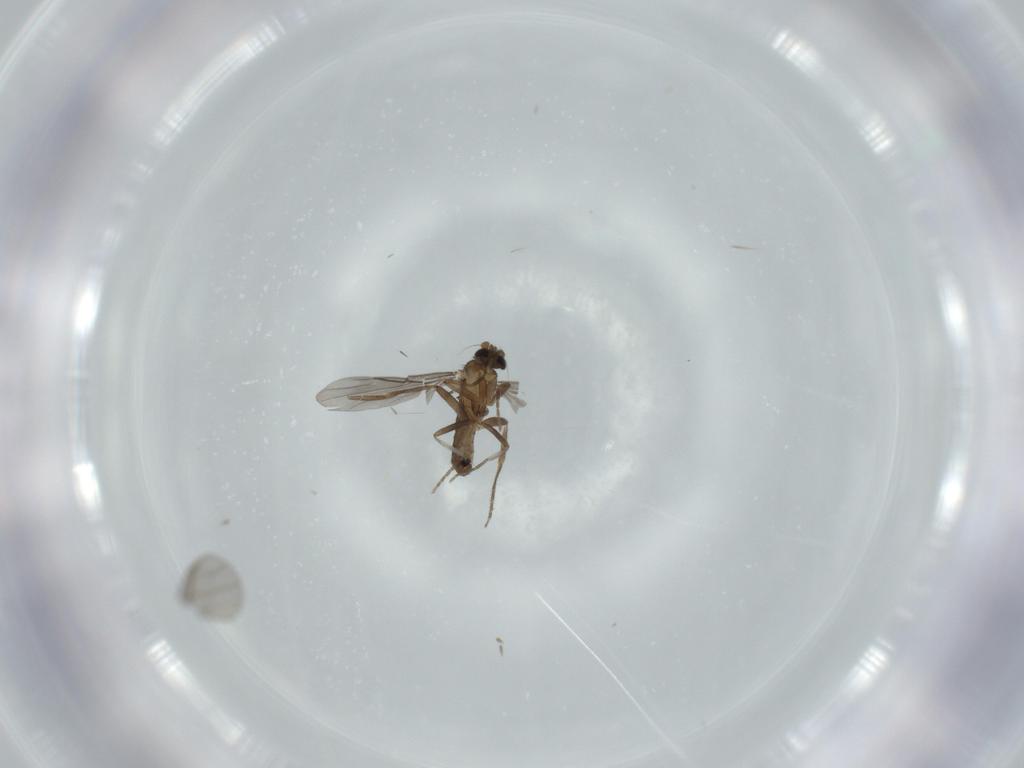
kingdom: Animalia
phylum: Arthropoda
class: Insecta
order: Diptera
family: Phoridae
